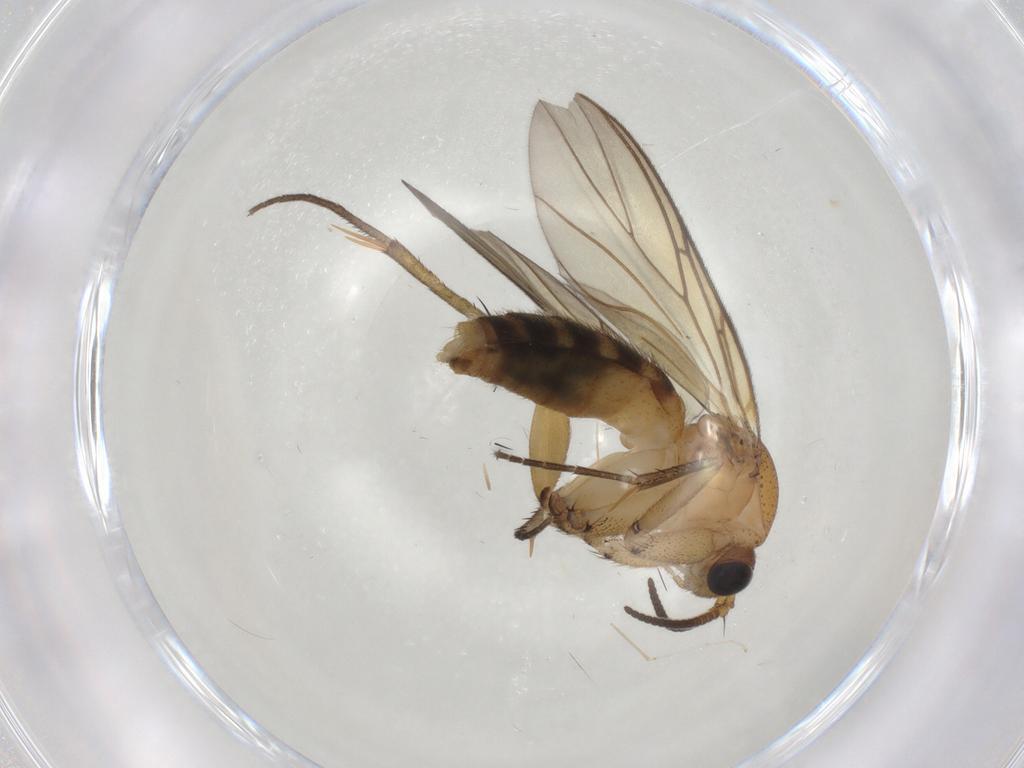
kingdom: Animalia
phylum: Arthropoda
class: Insecta
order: Diptera
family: Mycetophilidae
